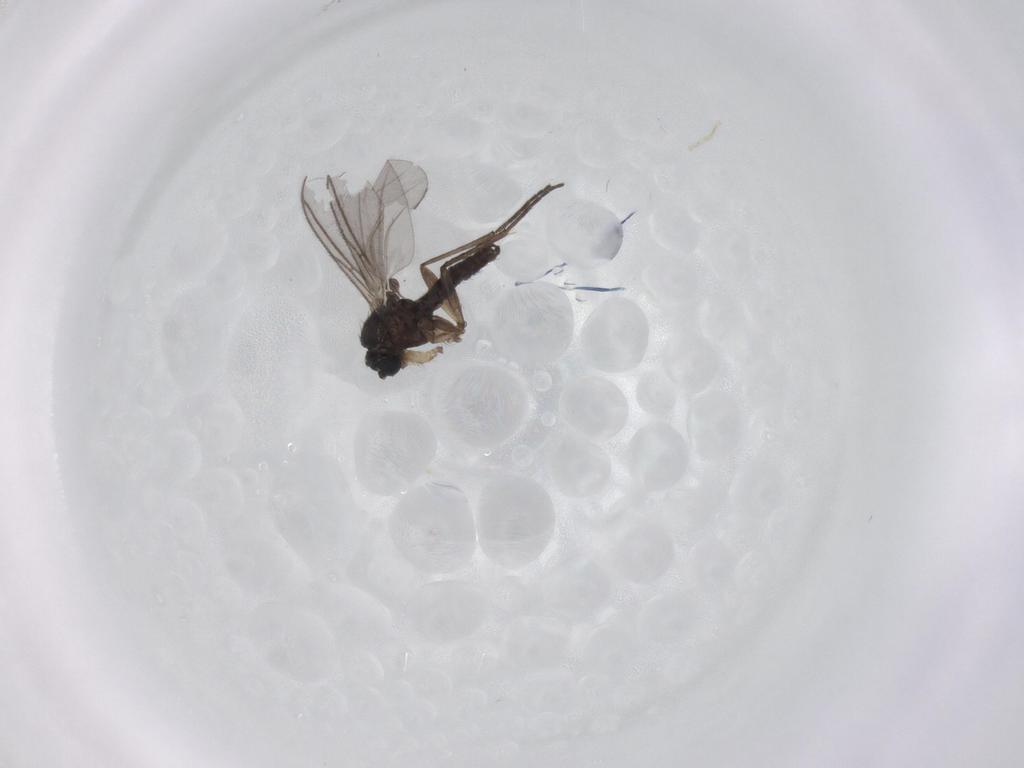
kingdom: Animalia
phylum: Arthropoda
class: Insecta
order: Diptera
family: Sciaridae
